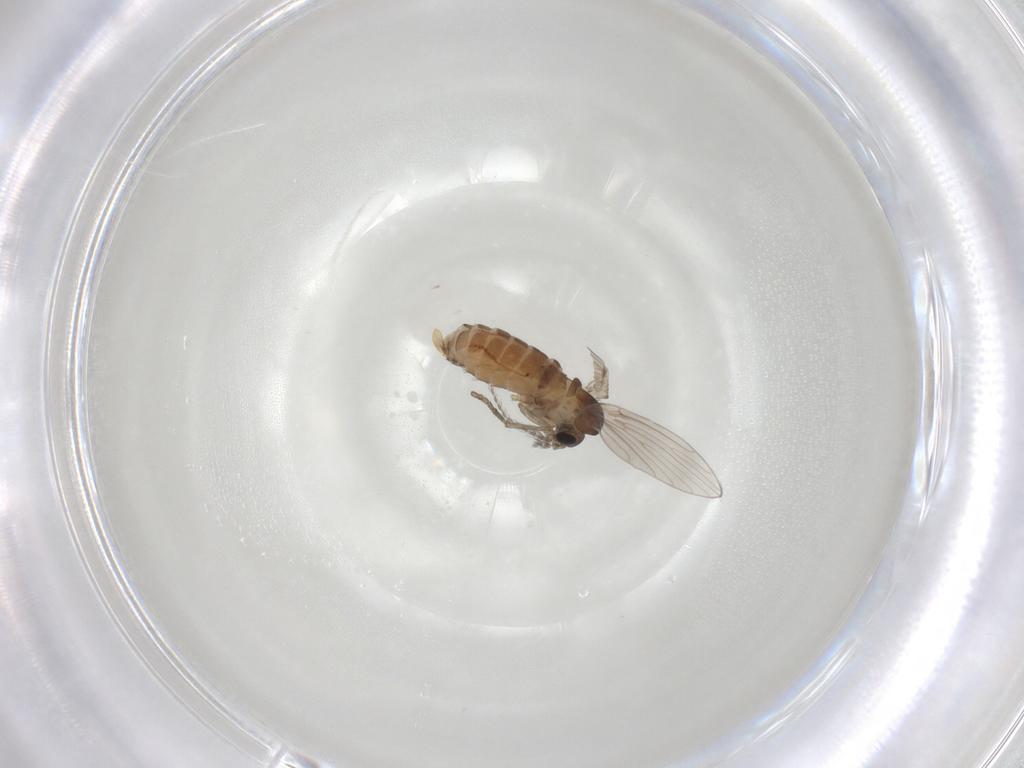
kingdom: Animalia
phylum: Arthropoda
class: Insecta
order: Diptera
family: Psychodidae
